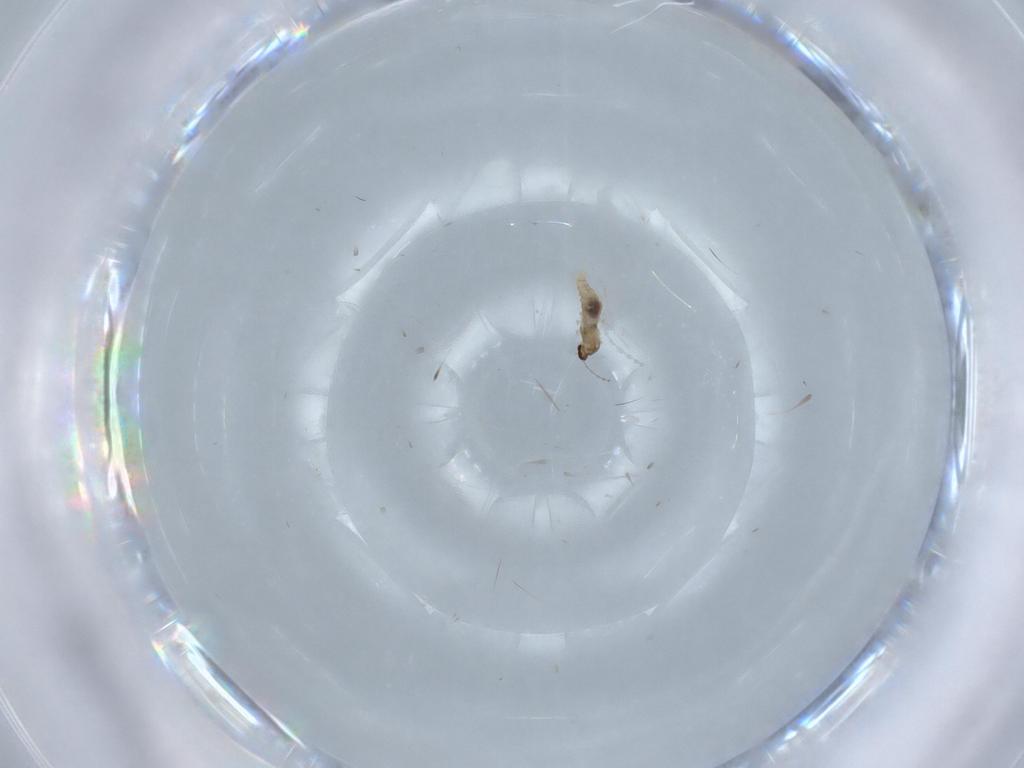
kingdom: Animalia
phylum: Arthropoda
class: Insecta
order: Diptera
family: Cecidomyiidae
